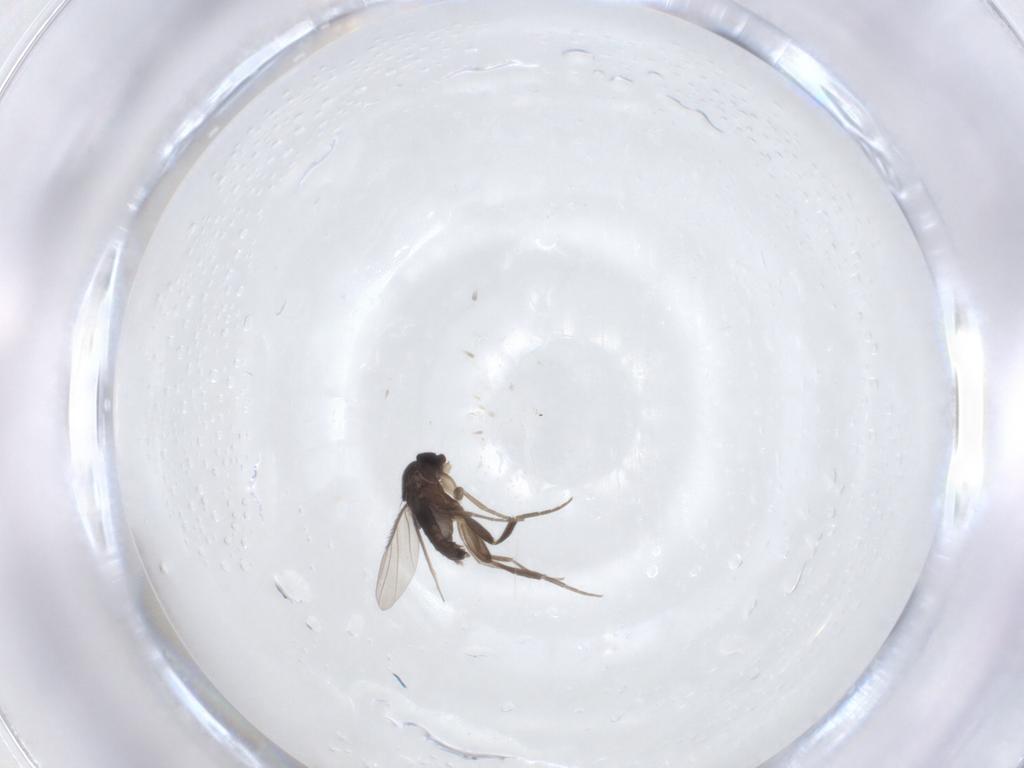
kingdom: Animalia
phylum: Arthropoda
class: Insecta
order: Diptera
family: Phoridae
